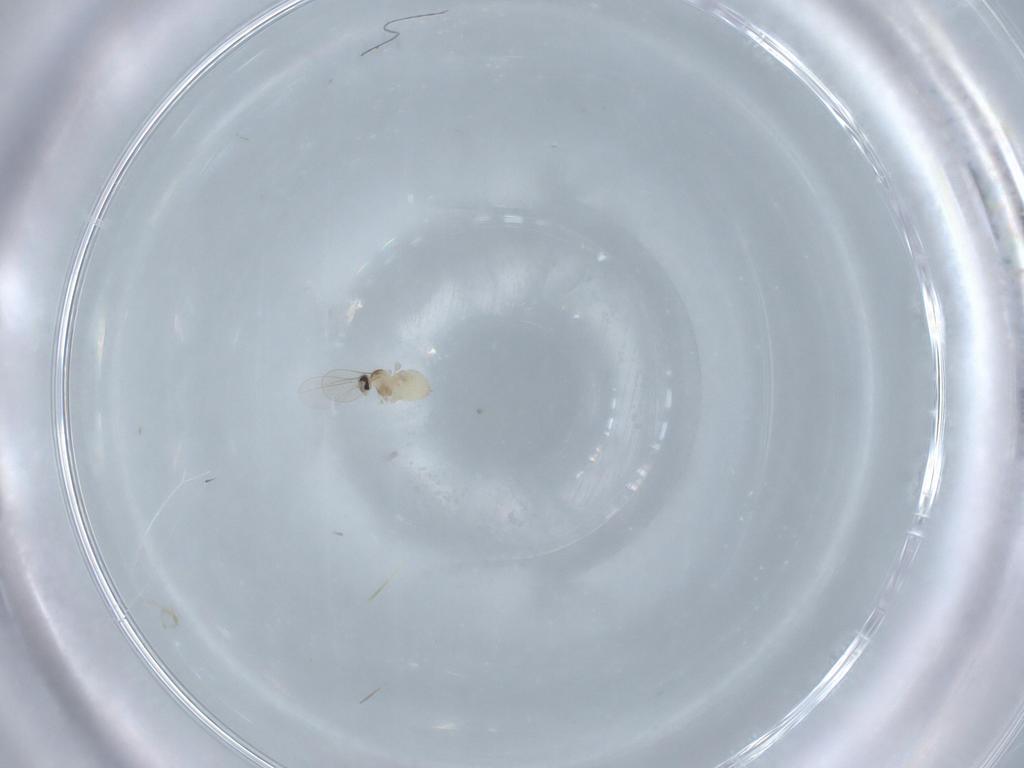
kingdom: Animalia
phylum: Arthropoda
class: Insecta
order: Diptera
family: Cecidomyiidae
